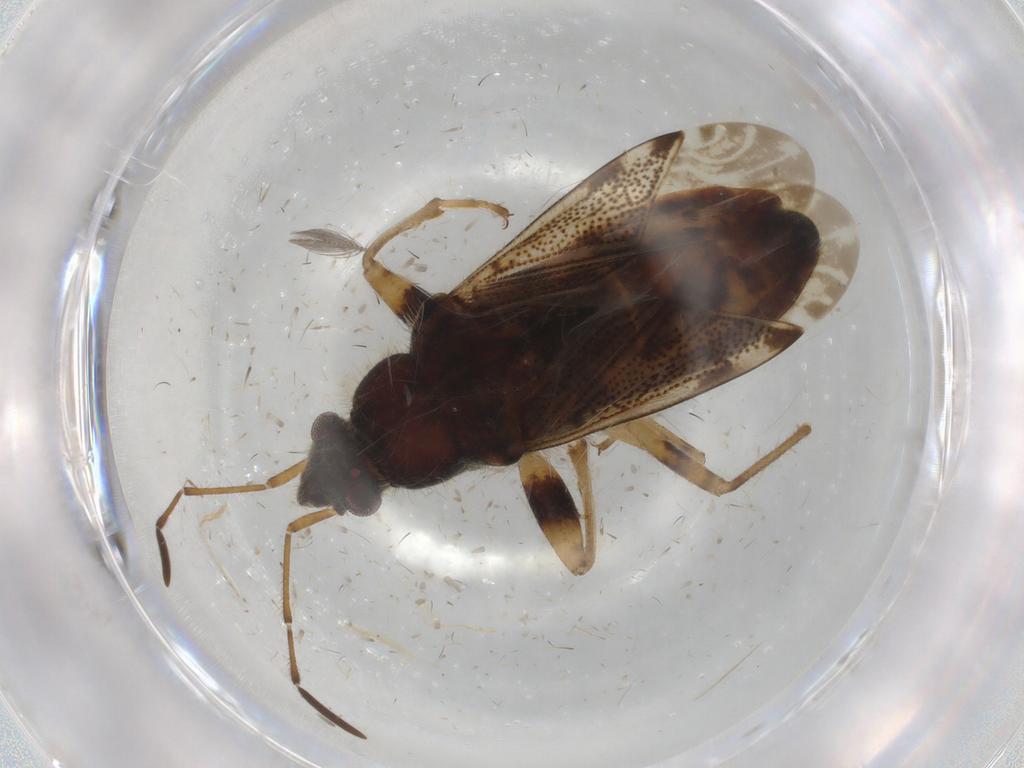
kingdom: Animalia
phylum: Arthropoda
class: Insecta
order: Hemiptera
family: Rhyparochromidae
